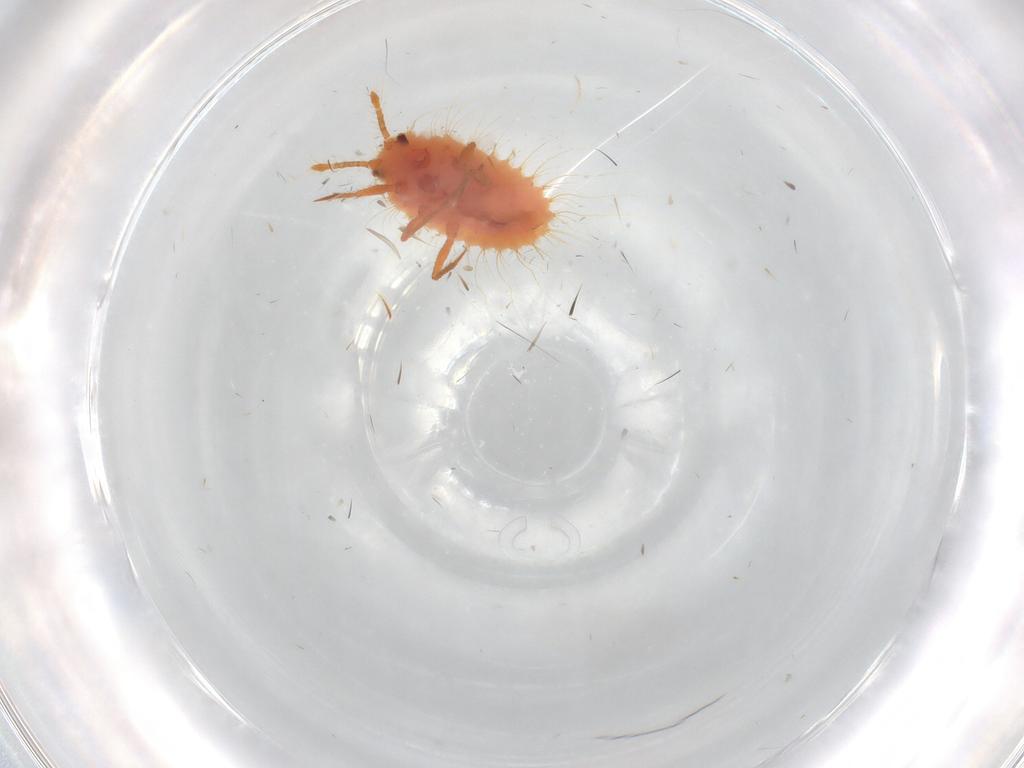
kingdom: Animalia
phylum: Arthropoda
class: Insecta
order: Hemiptera
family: Coccoidea_incertae_sedis
